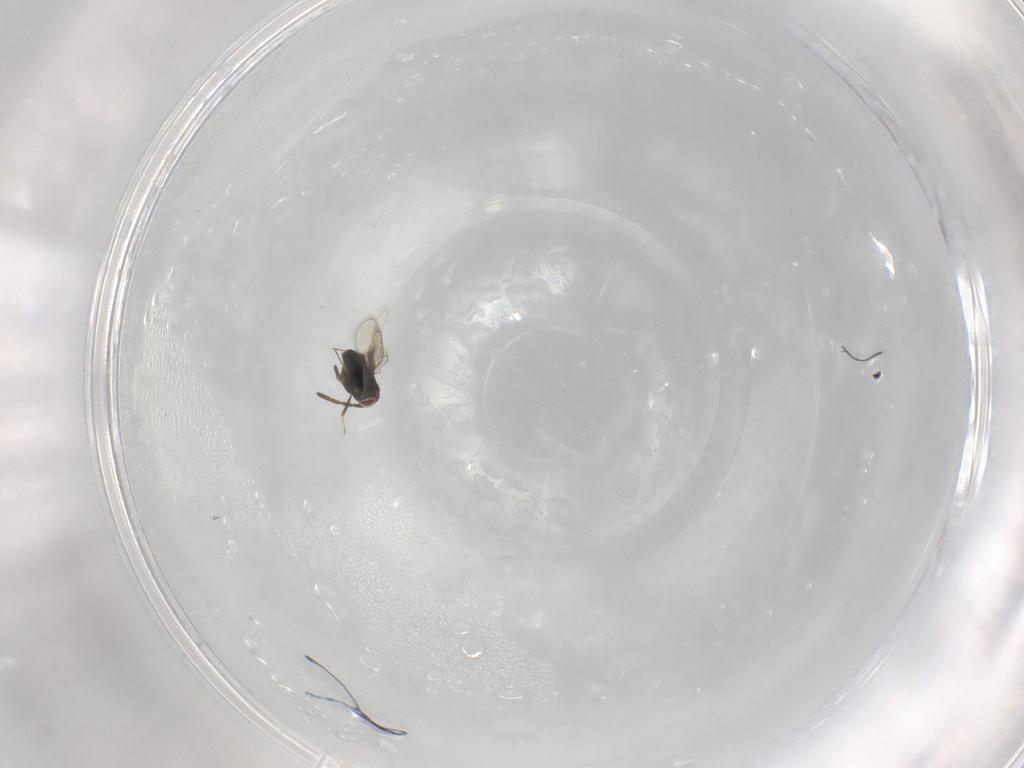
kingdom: Animalia
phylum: Arthropoda
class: Insecta
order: Hymenoptera
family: Azotidae
